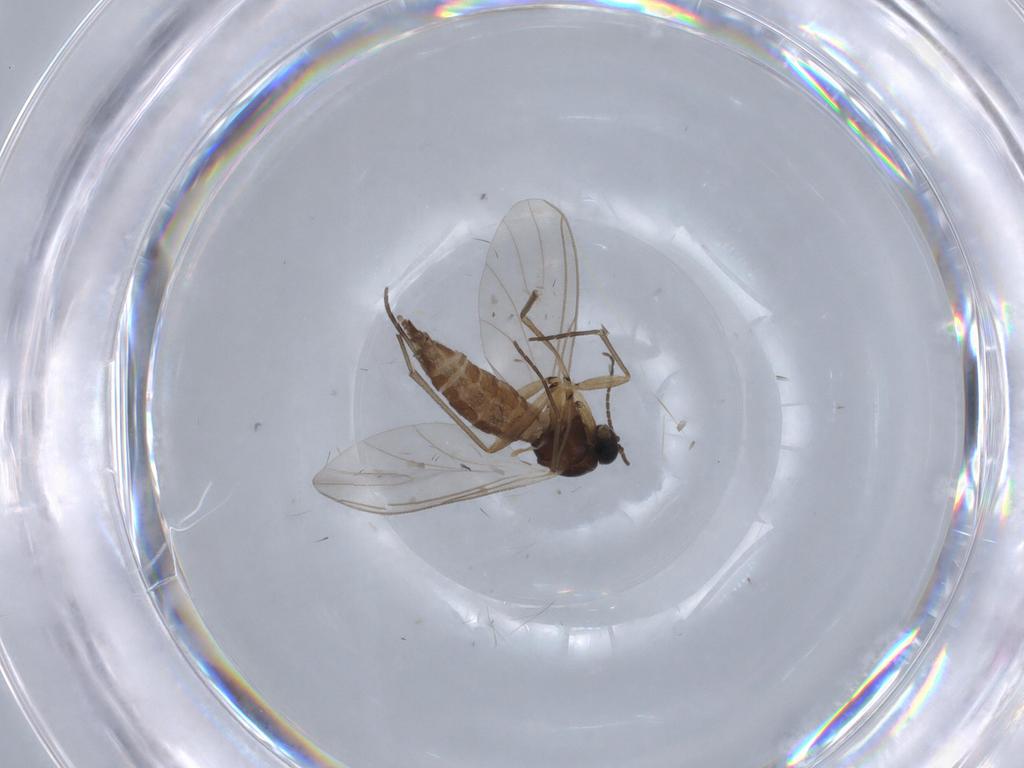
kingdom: Animalia
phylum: Arthropoda
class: Insecta
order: Diptera
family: Sciaridae
